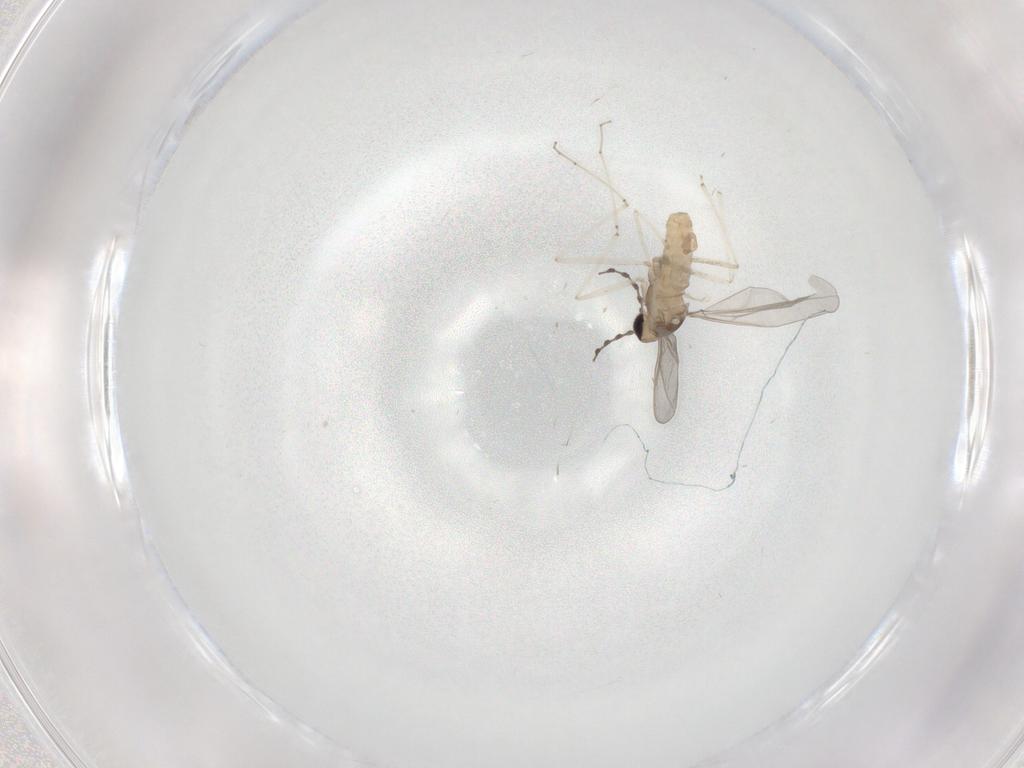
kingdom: Animalia
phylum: Arthropoda
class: Insecta
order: Diptera
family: Cecidomyiidae
